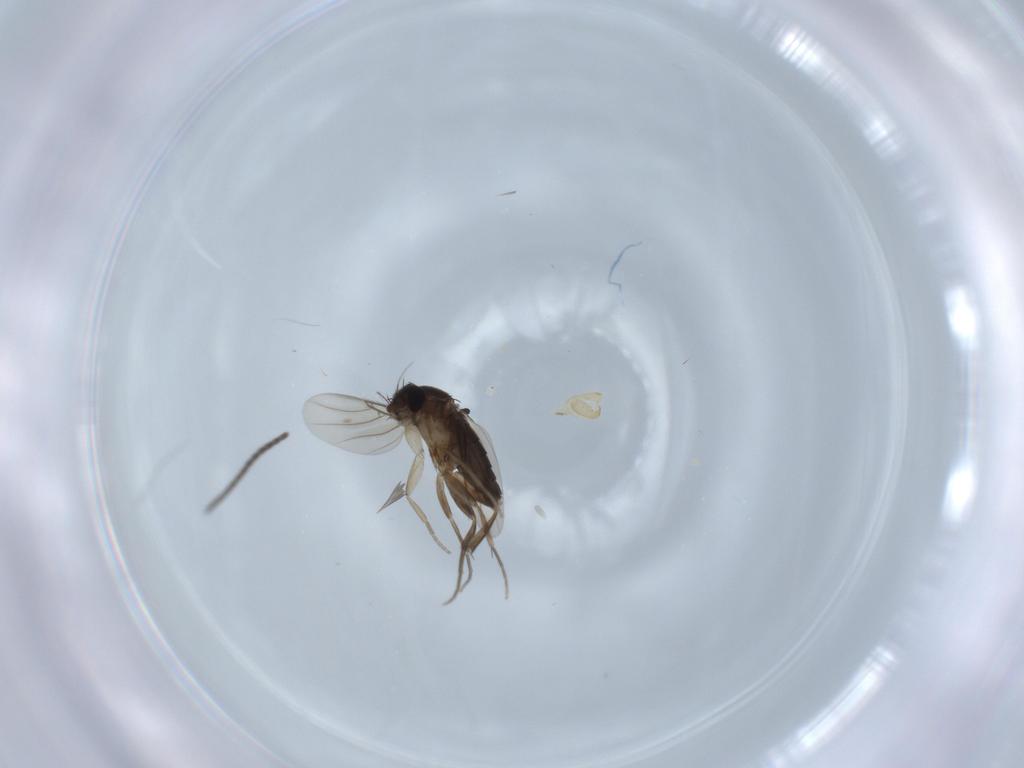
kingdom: Animalia
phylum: Arthropoda
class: Insecta
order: Diptera
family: Phoridae
